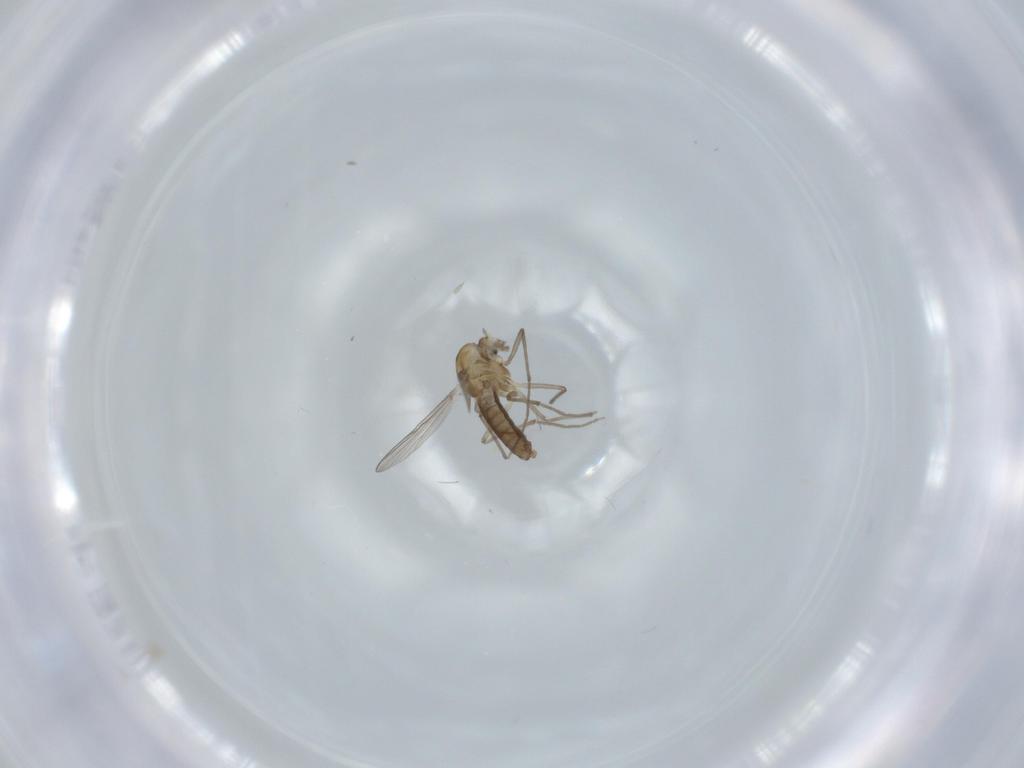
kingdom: Animalia
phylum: Arthropoda
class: Insecta
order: Diptera
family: Chironomidae
